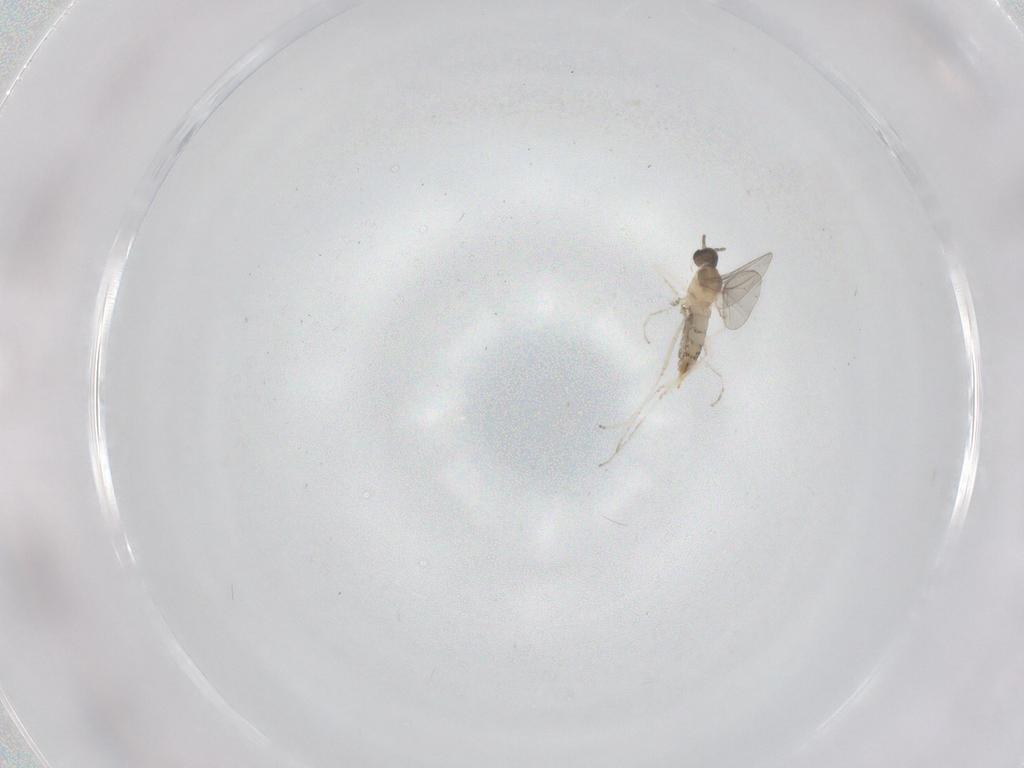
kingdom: Animalia
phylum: Arthropoda
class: Insecta
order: Diptera
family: Cecidomyiidae
